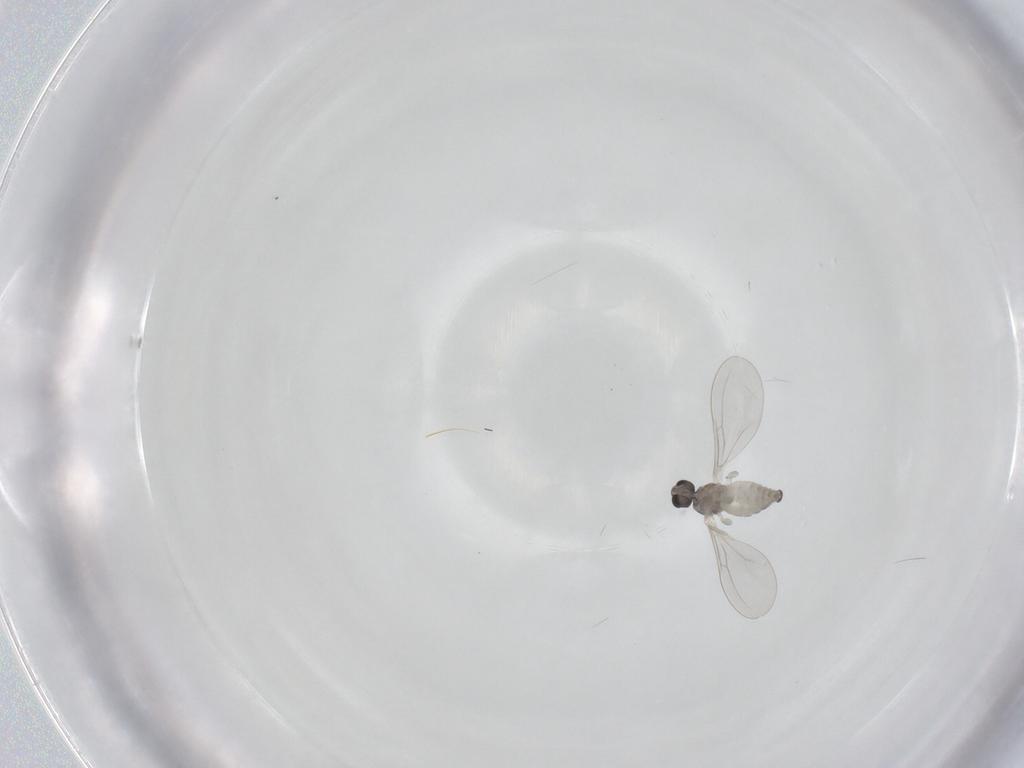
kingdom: Animalia
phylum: Arthropoda
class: Insecta
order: Diptera
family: Cecidomyiidae
